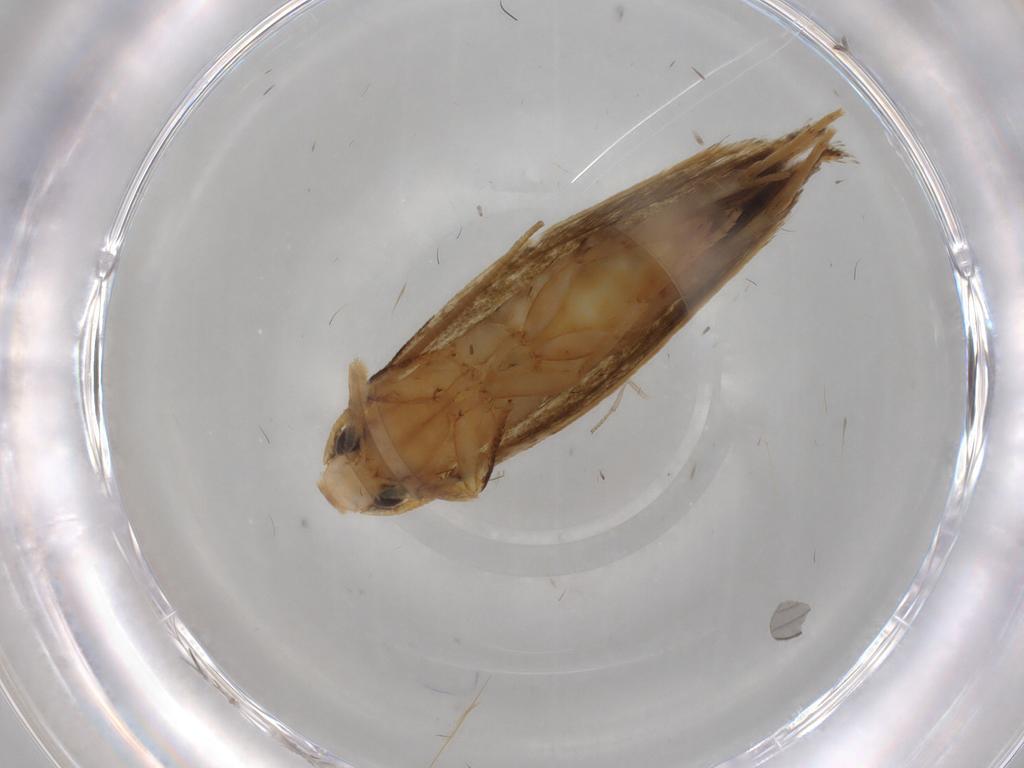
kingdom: Animalia
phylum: Arthropoda
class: Insecta
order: Lepidoptera
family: Tineidae
